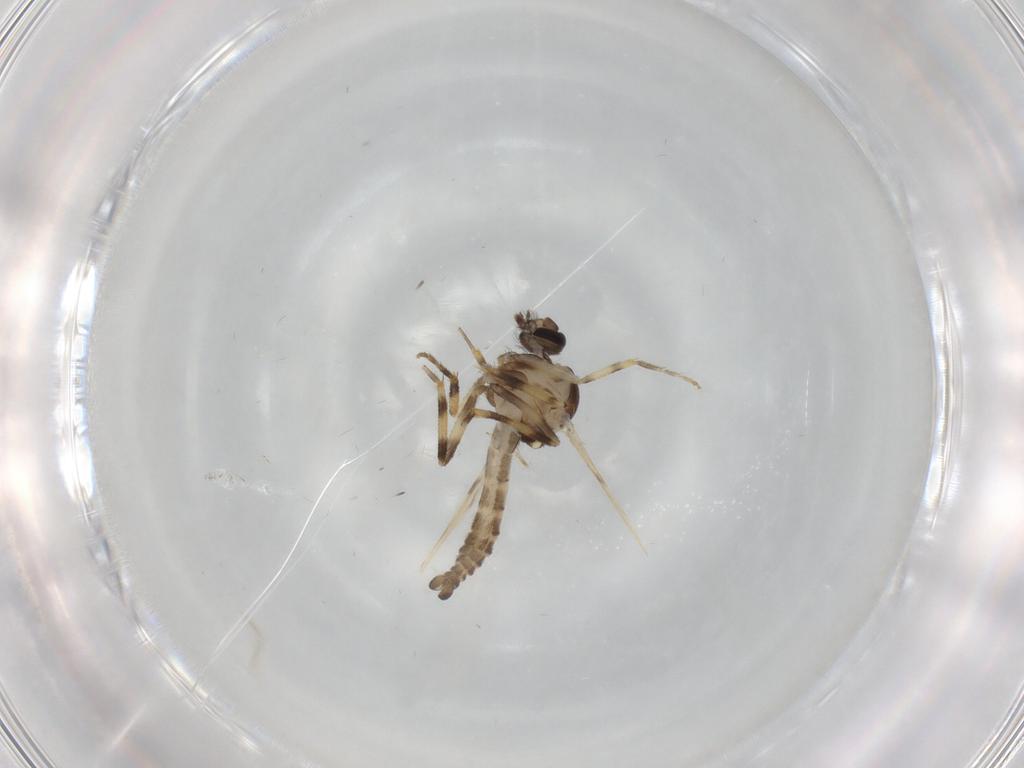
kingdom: Animalia
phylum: Arthropoda
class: Insecta
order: Diptera
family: Ceratopogonidae
